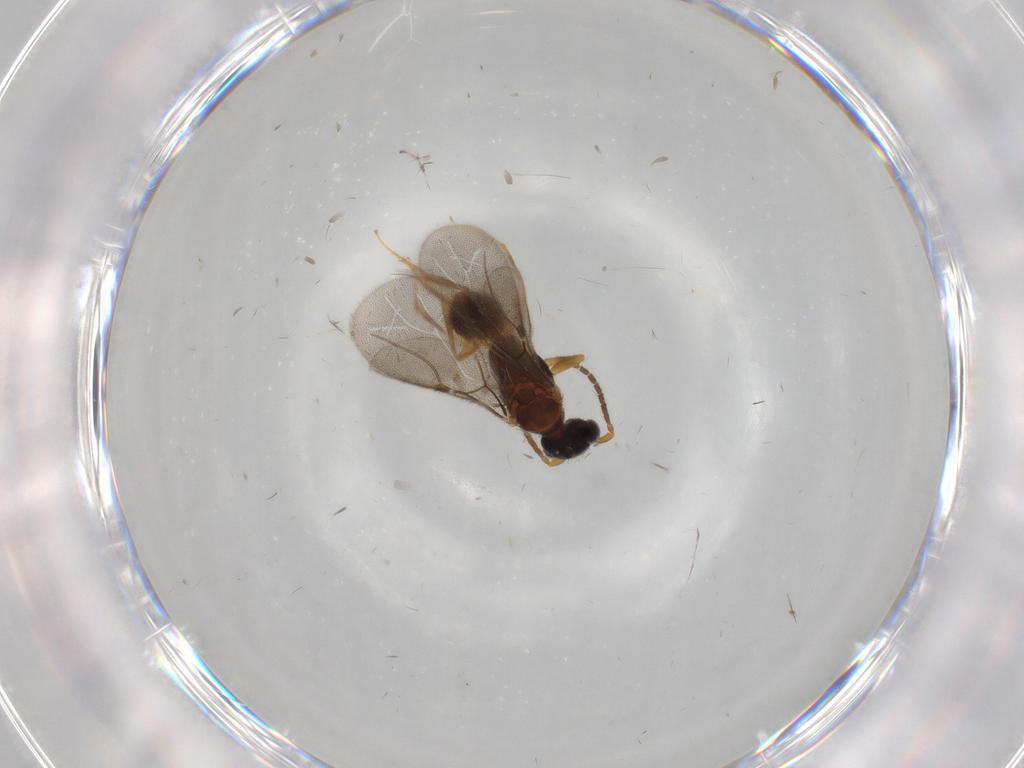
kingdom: Animalia
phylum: Arthropoda
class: Insecta
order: Hymenoptera
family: Bethylidae
